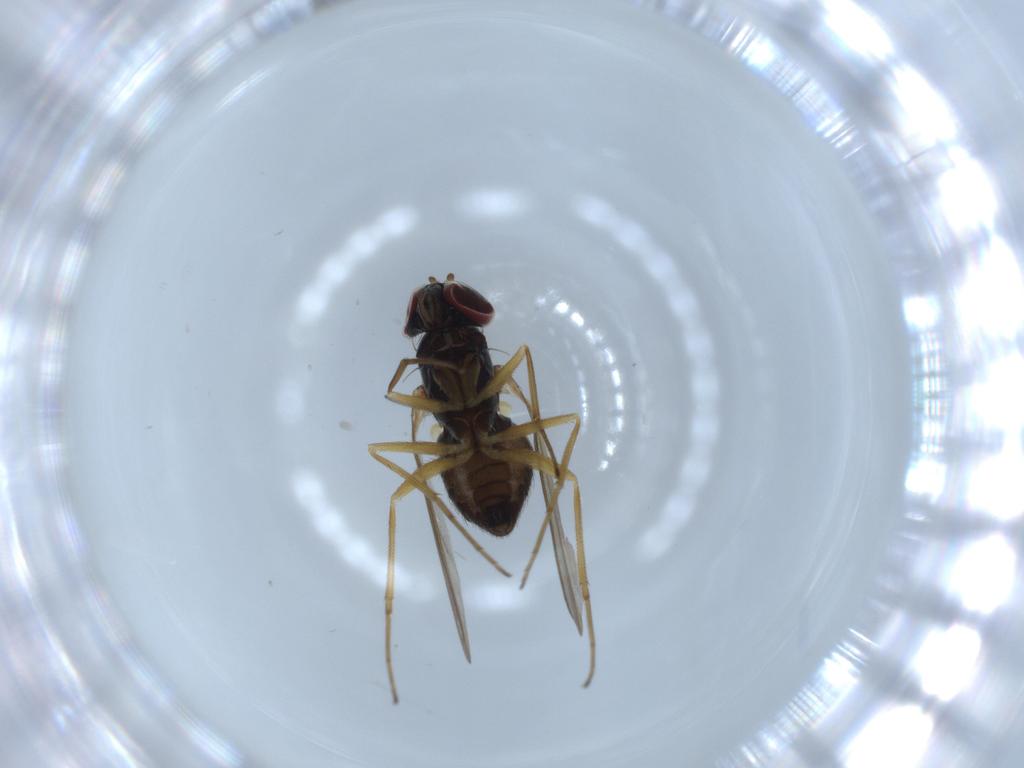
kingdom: Animalia
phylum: Arthropoda
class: Insecta
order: Diptera
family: Dolichopodidae
